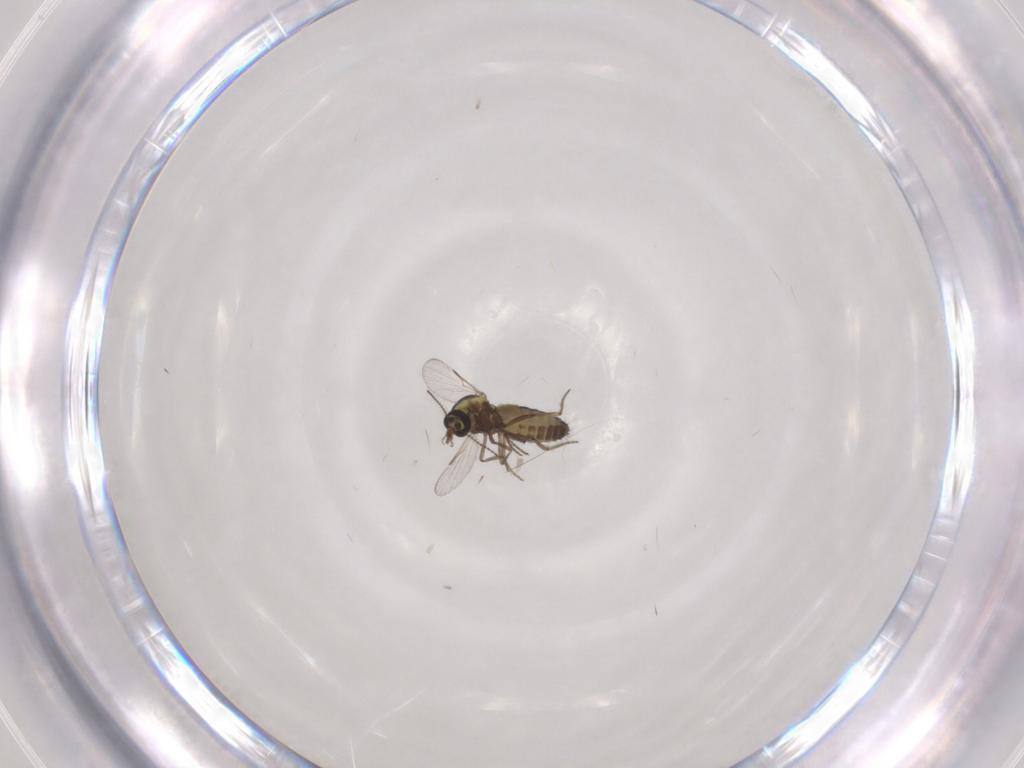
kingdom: Animalia
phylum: Arthropoda
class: Insecta
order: Diptera
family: Ceratopogonidae
